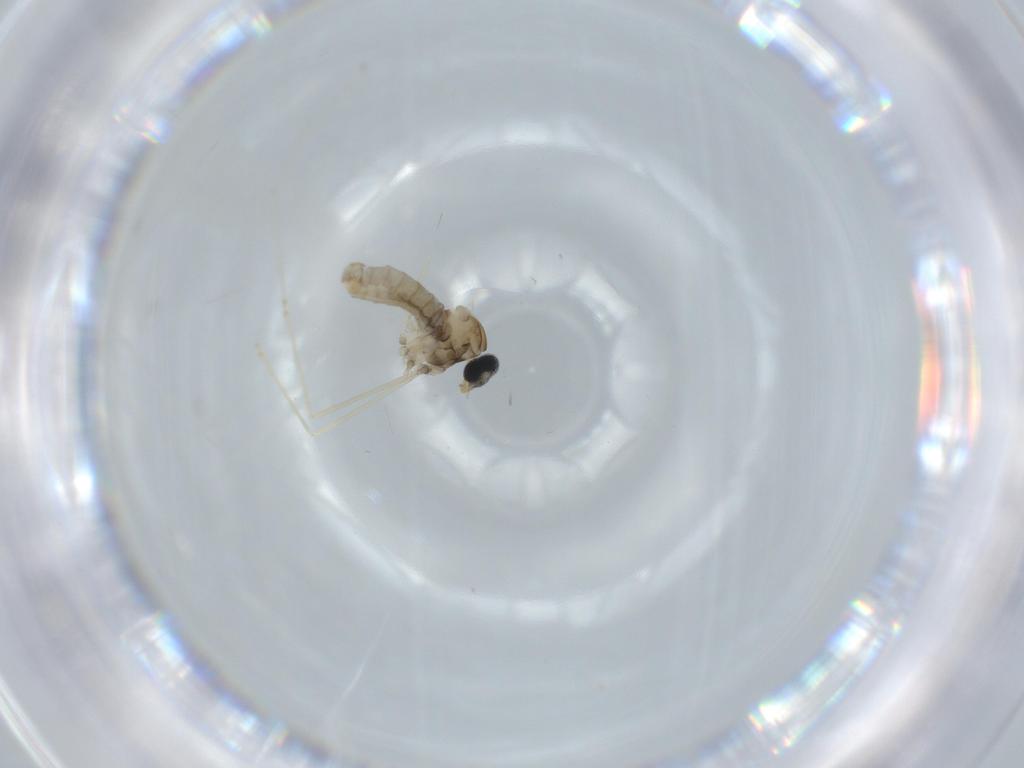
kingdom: Animalia
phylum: Arthropoda
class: Insecta
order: Diptera
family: Cecidomyiidae
